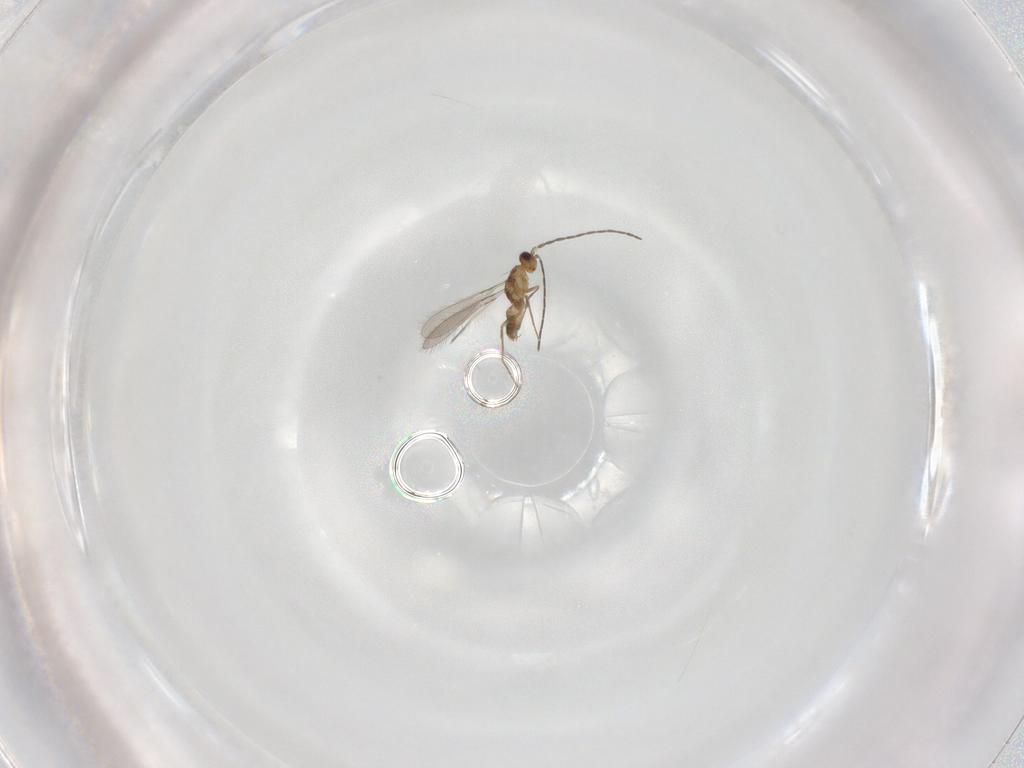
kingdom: Animalia
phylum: Arthropoda
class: Insecta
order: Hymenoptera
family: Mymaridae
